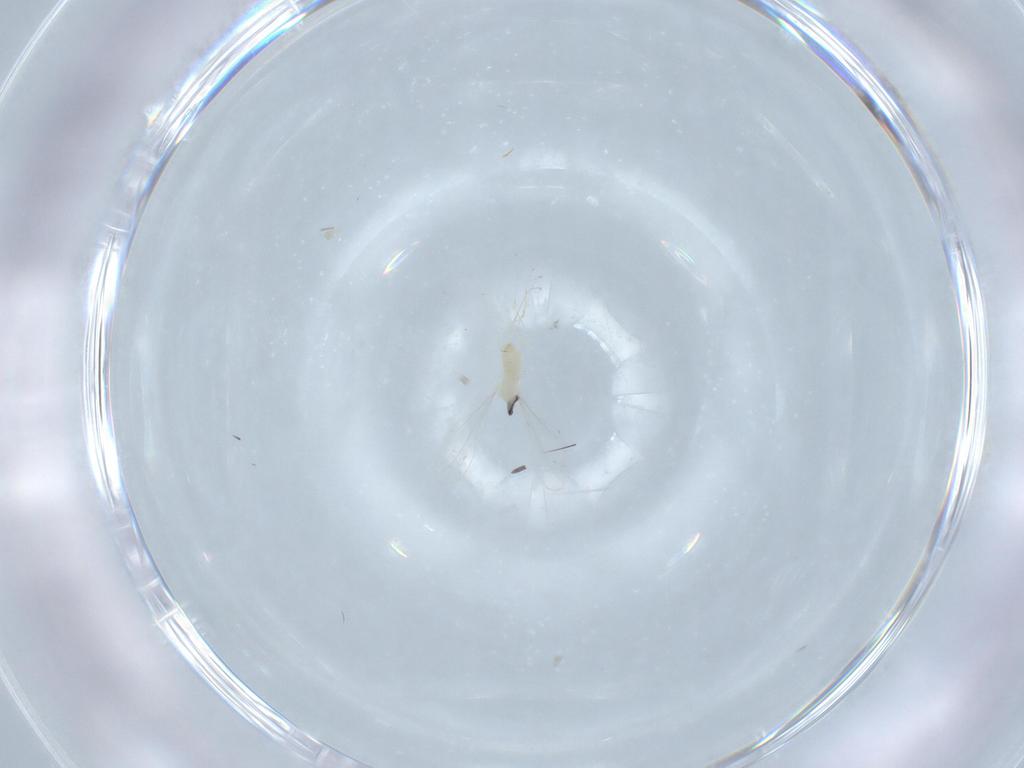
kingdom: Animalia
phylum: Arthropoda
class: Insecta
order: Diptera
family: Cecidomyiidae
